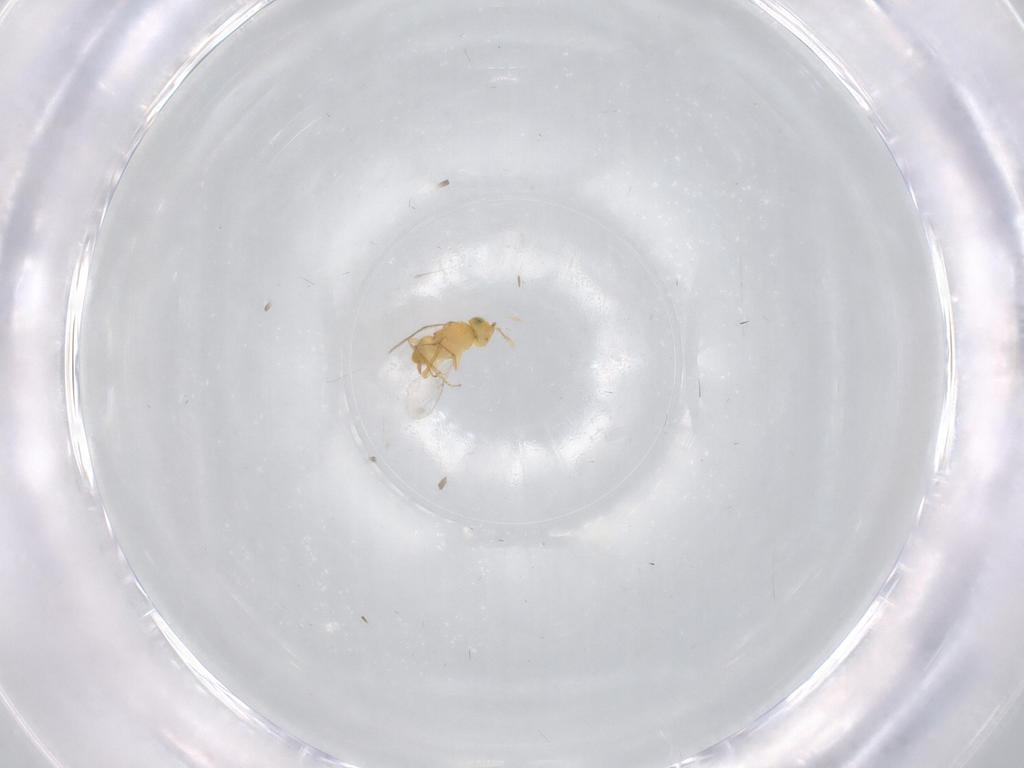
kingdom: Animalia
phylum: Arthropoda
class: Insecta
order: Hymenoptera
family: Encyrtidae
